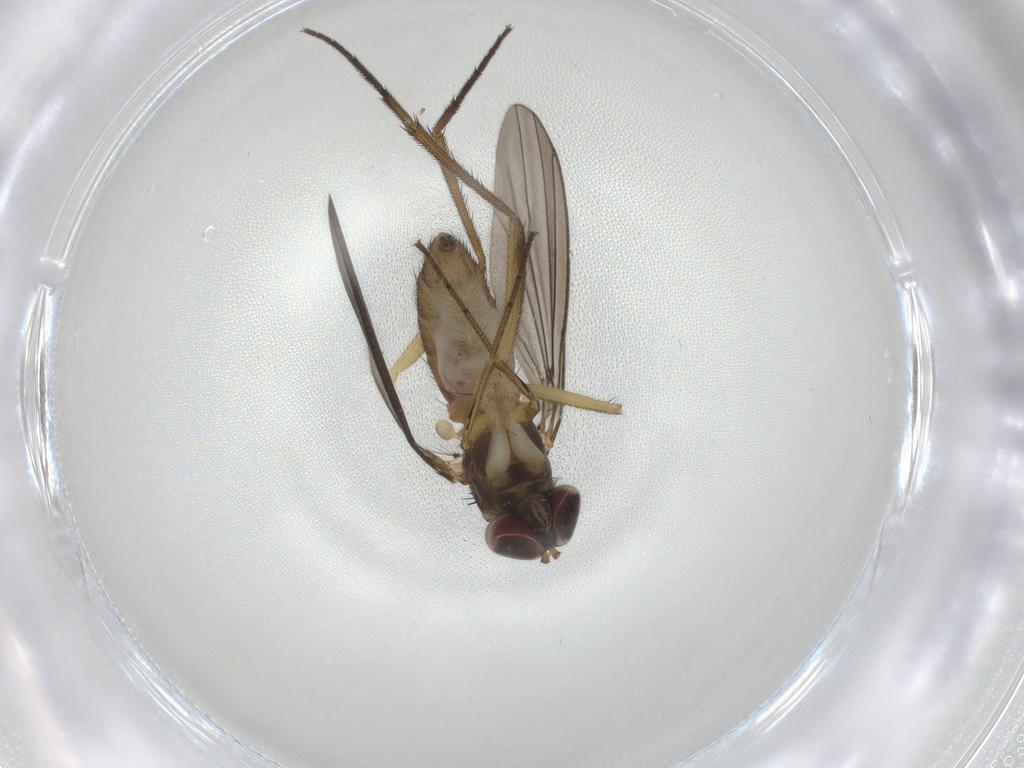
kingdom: Animalia
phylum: Arthropoda
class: Insecta
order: Diptera
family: Dolichopodidae
